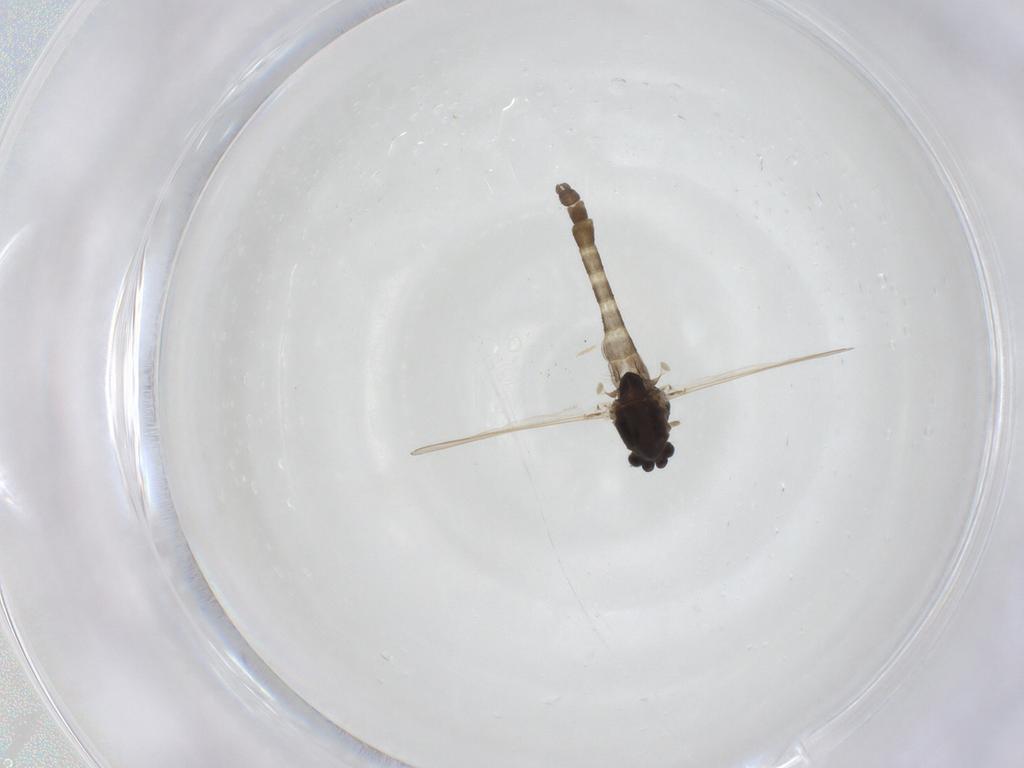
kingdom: Animalia
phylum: Arthropoda
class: Insecta
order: Diptera
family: Chironomidae
